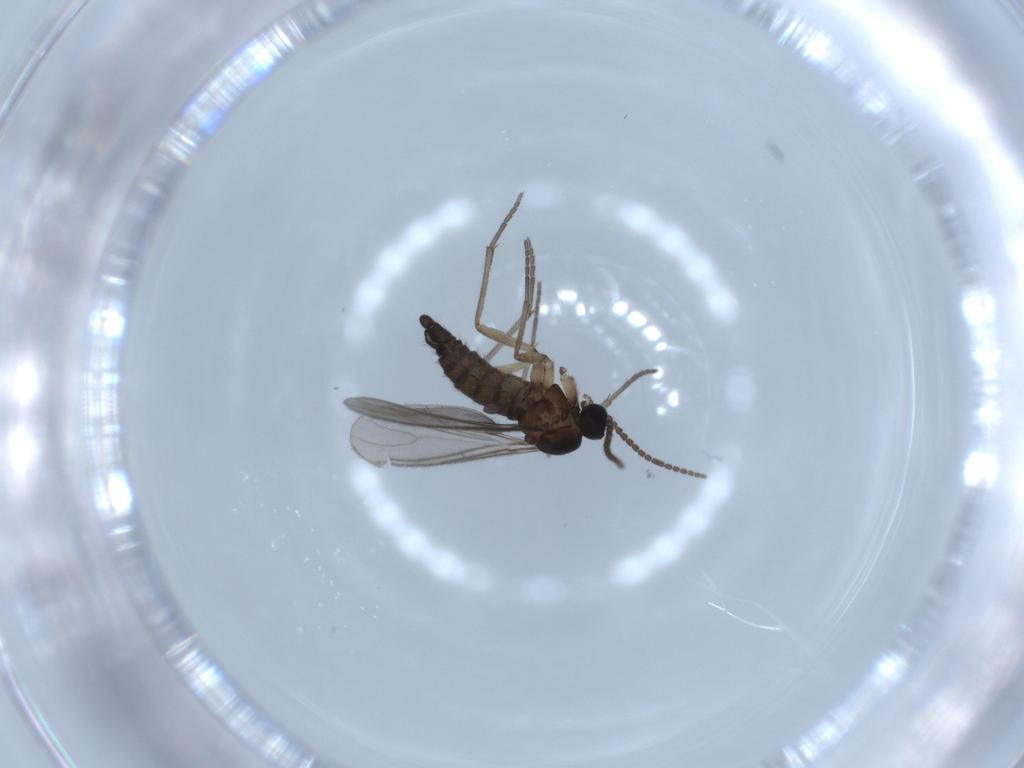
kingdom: Animalia
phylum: Arthropoda
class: Insecta
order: Diptera
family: Sciaridae
